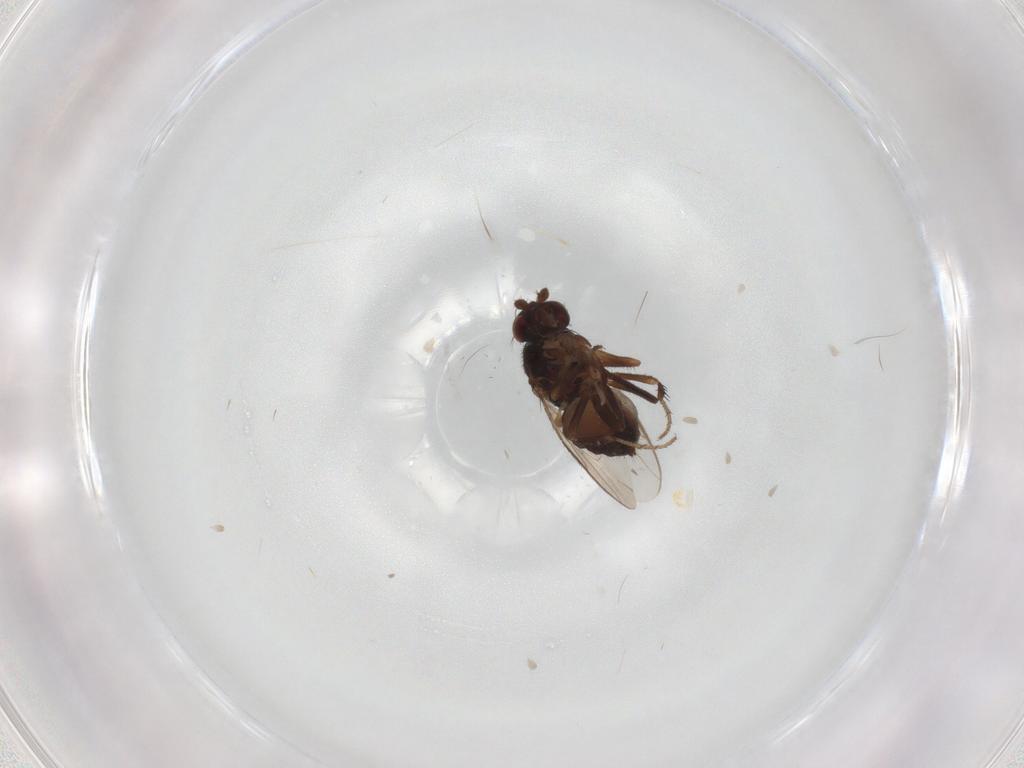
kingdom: Animalia
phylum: Arthropoda
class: Insecta
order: Diptera
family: Sphaeroceridae
